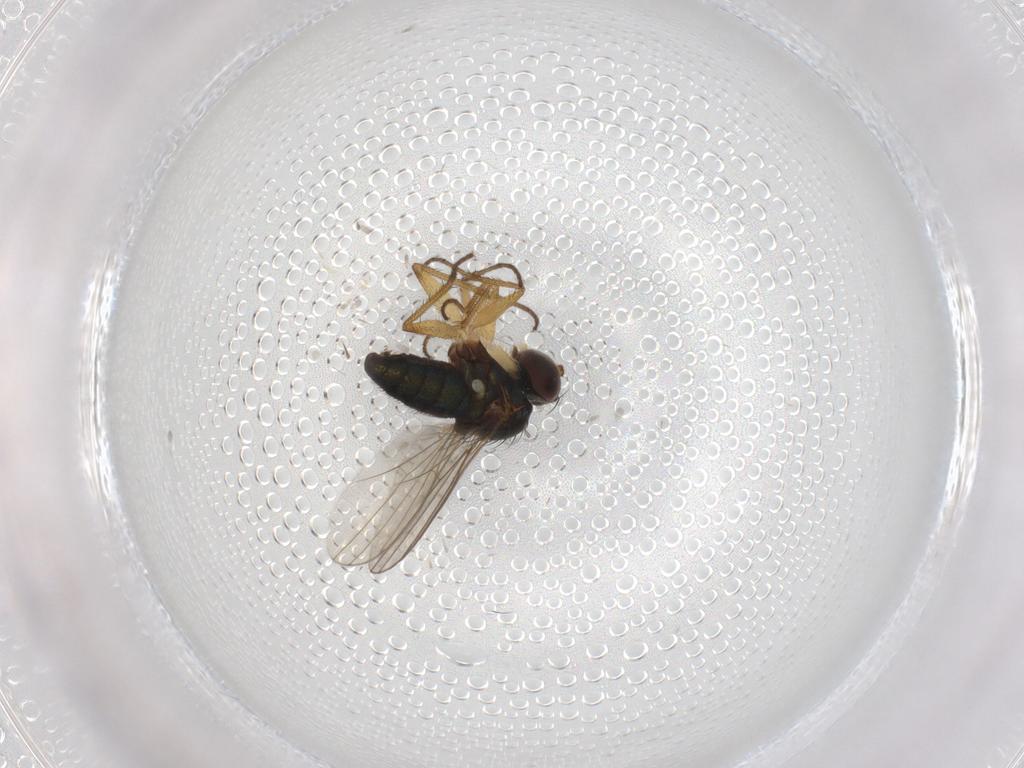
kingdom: Animalia
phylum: Arthropoda
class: Insecta
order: Diptera
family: Dolichopodidae
